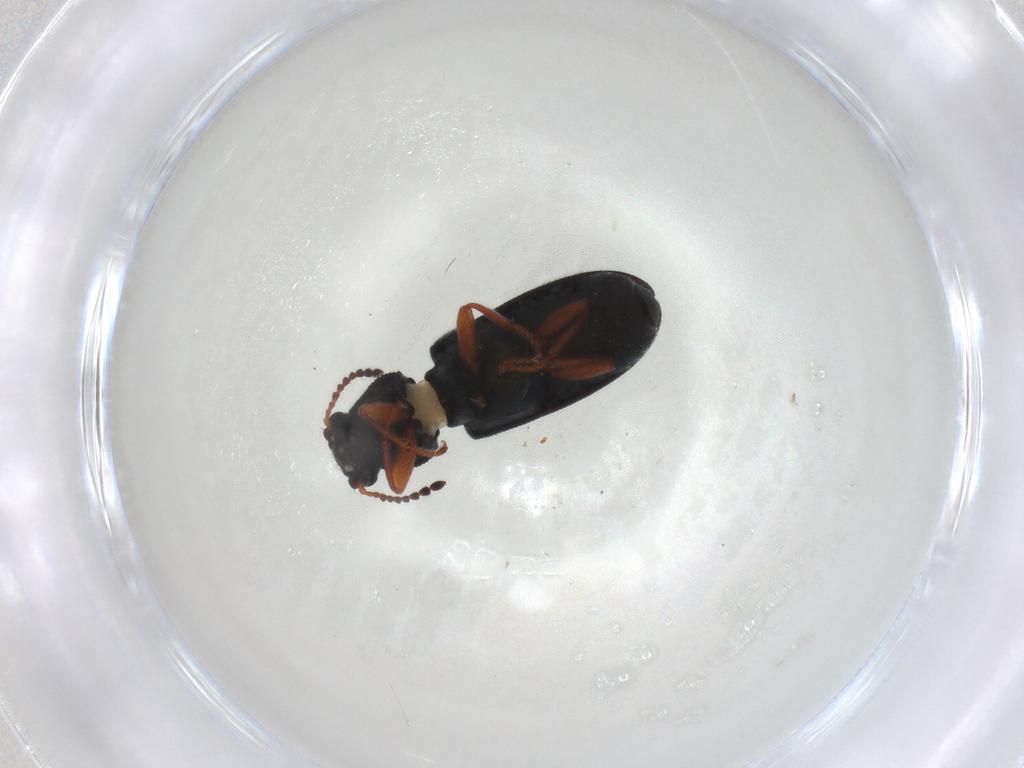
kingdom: Animalia
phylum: Arthropoda
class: Insecta
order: Coleoptera
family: Melyridae
